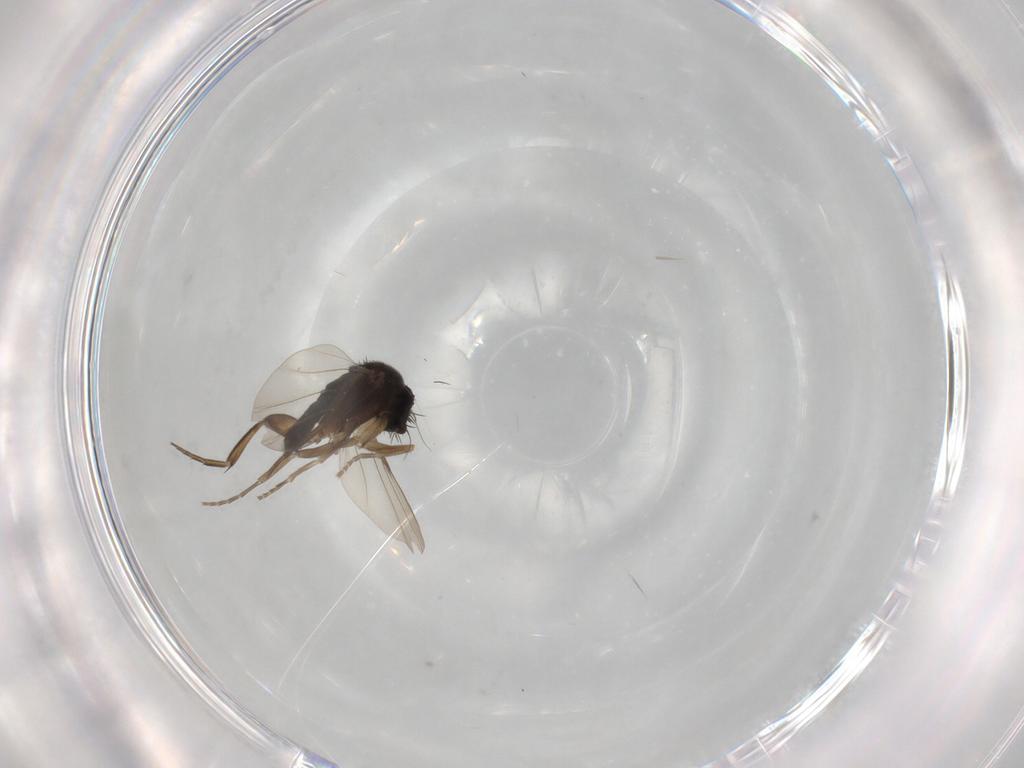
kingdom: Animalia
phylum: Arthropoda
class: Insecta
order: Diptera
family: Phoridae
